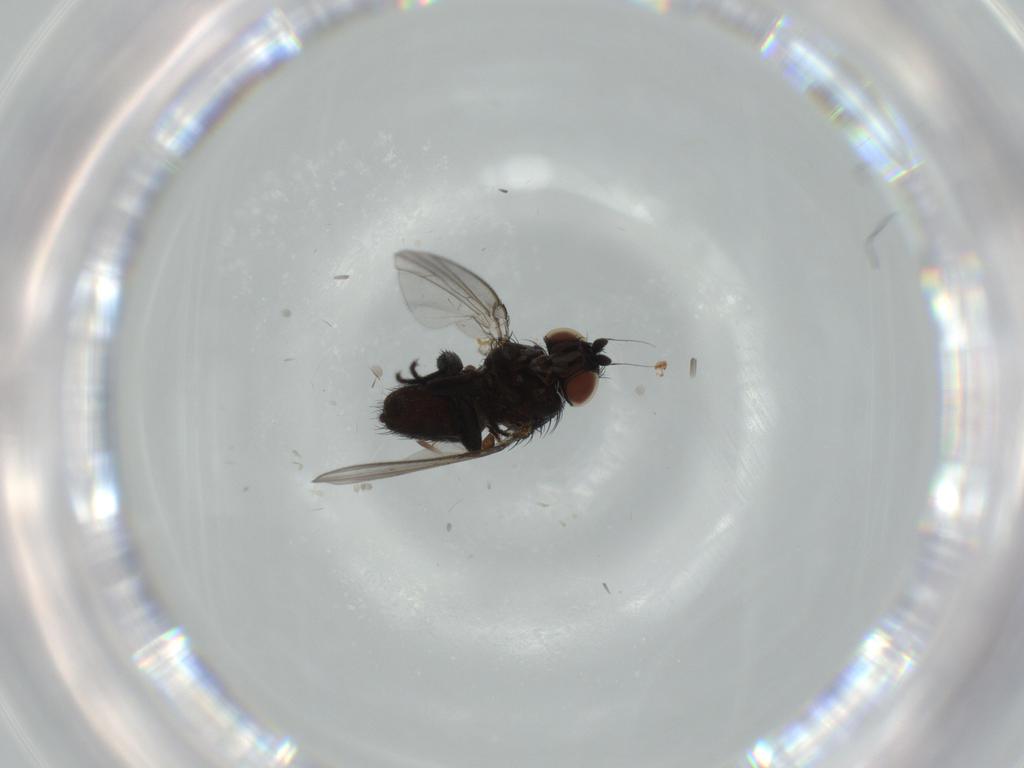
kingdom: Animalia
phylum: Arthropoda
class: Insecta
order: Diptera
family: Milichiidae
